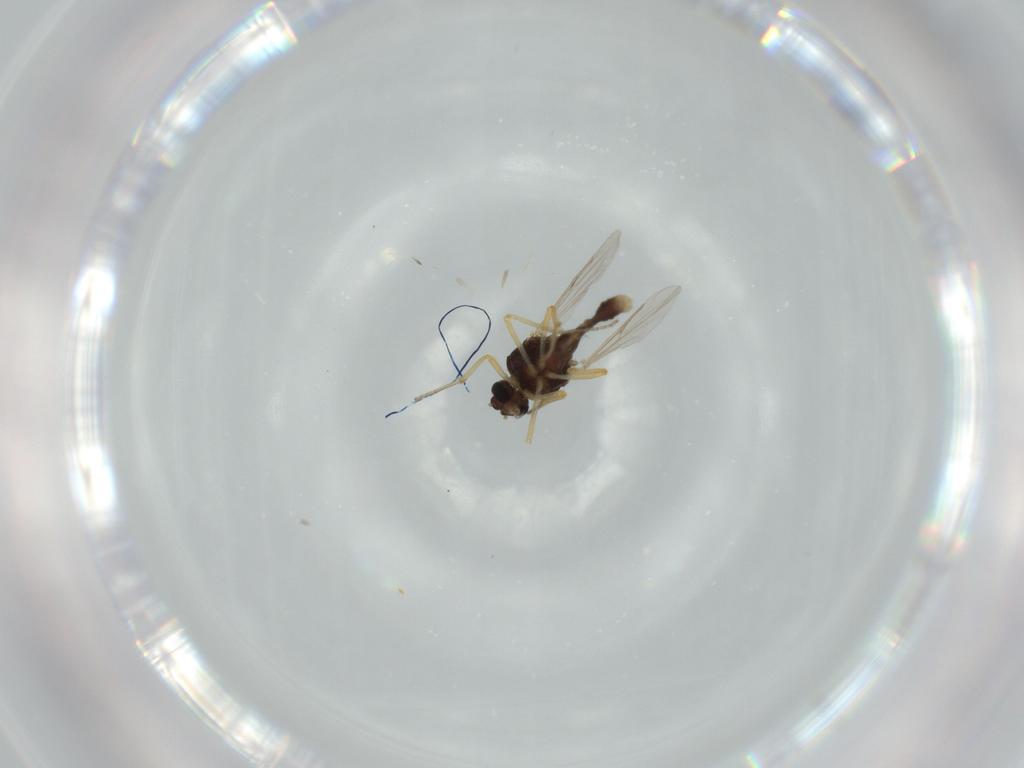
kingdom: Animalia
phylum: Arthropoda
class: Insecta
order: Diptera
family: Ceratopogonidae
